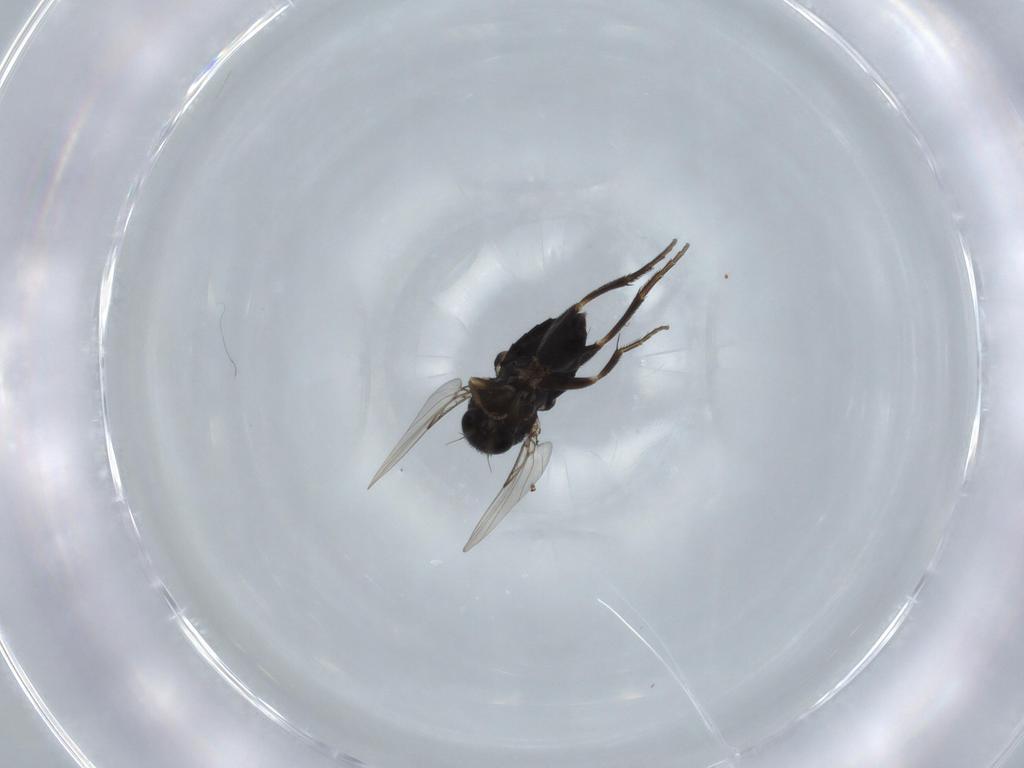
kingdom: Animalia
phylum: Arthropoda
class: Insecta
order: Diptera
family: Phoridae
